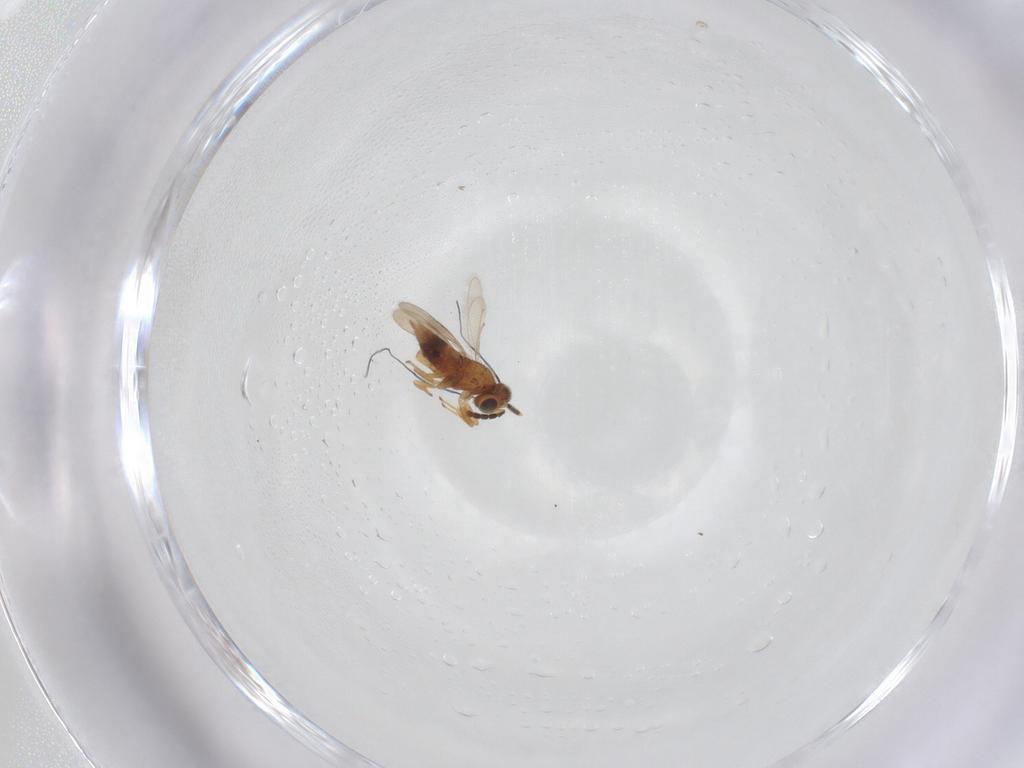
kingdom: Animalia
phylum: Arthropoda
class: Insecta
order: Hymenoptera
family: Aphelinidae
